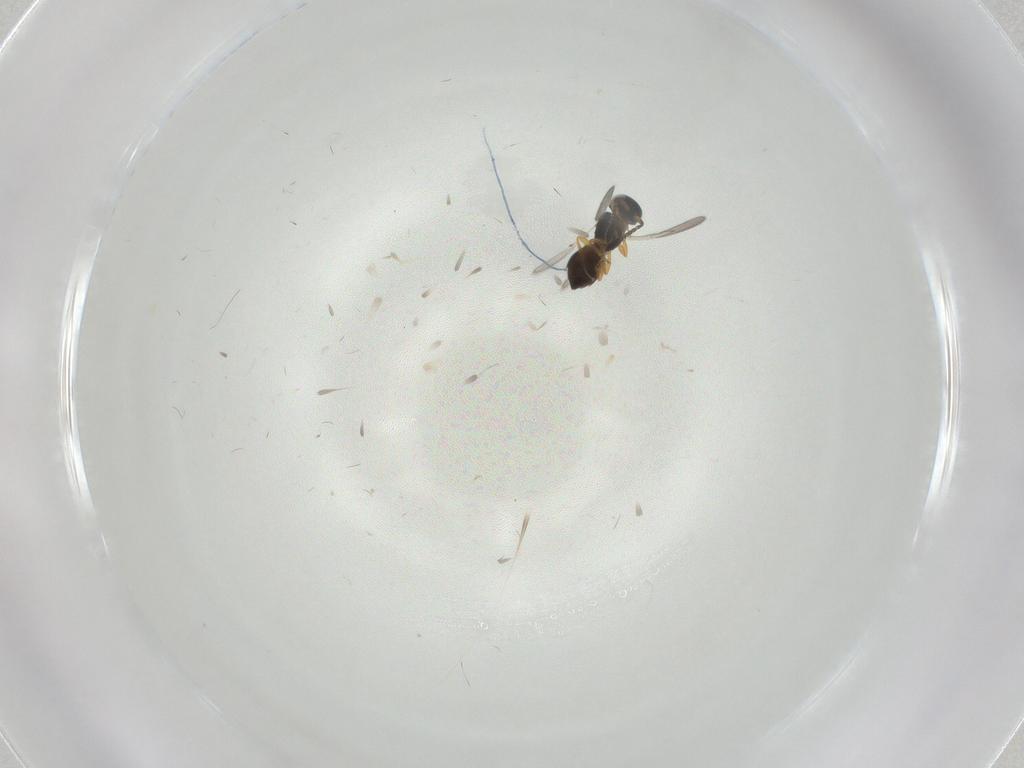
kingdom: Animalia
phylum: Arthropoda
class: Insecta
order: Hymenoptera
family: Scelionidae
